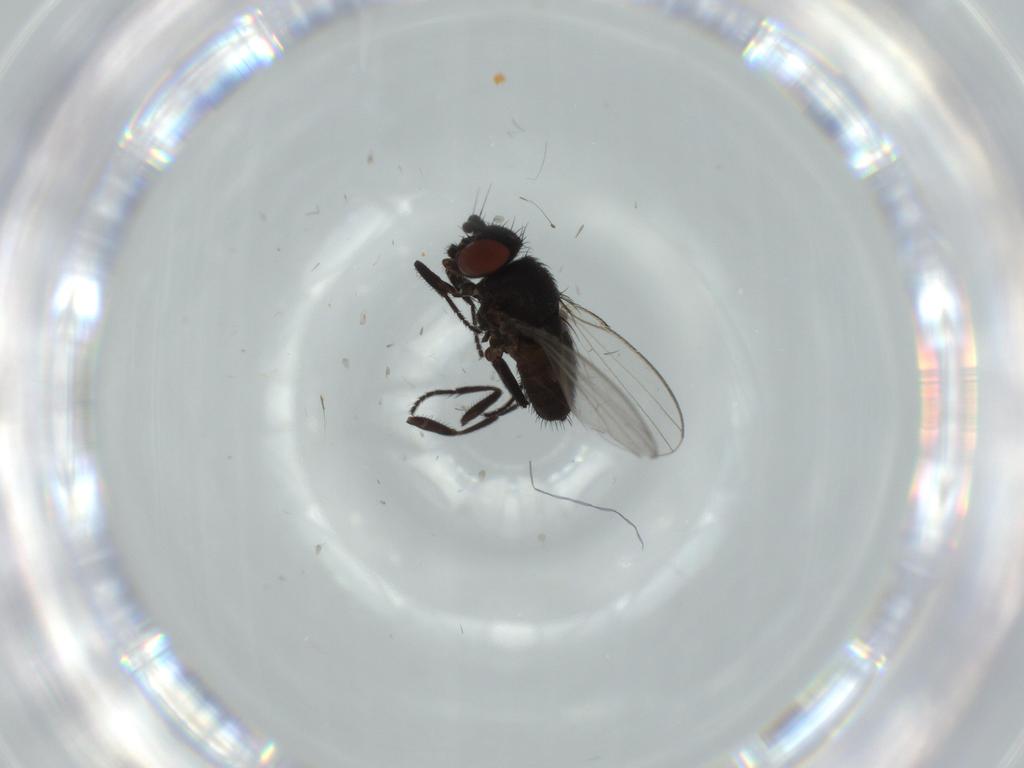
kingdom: Animalia
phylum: Arthropoda
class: Insecta
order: Diptera
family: Milichiidae
